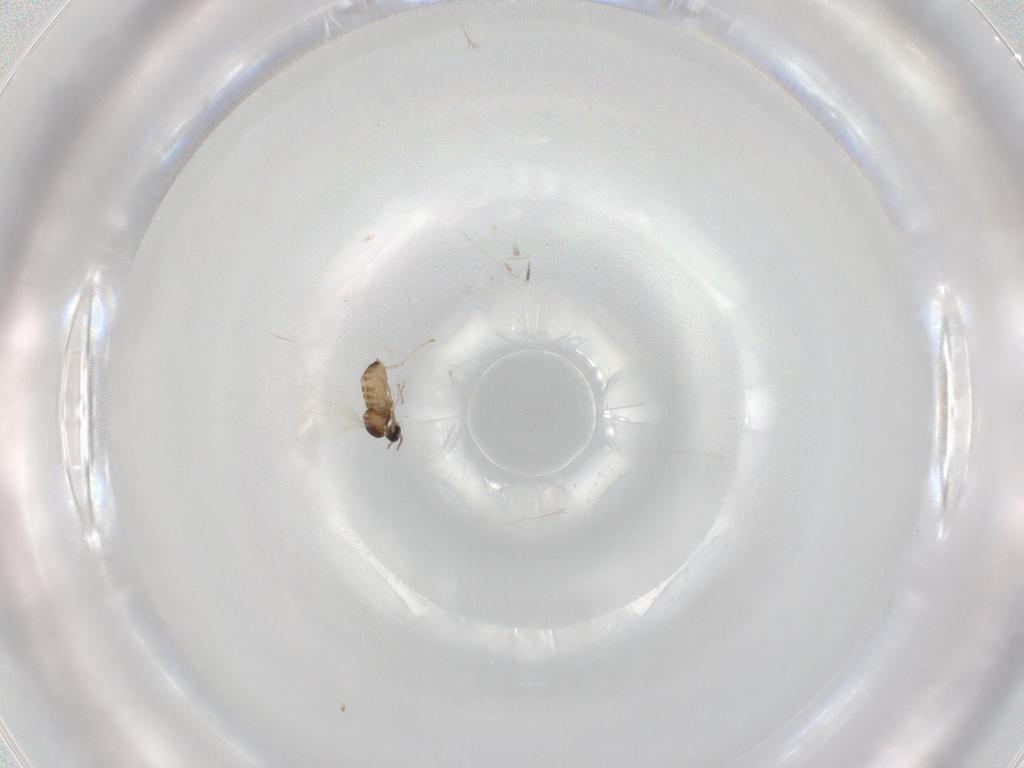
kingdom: Animalia
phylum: Arthropoda
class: Insecta
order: Diptera
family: Cecidomyiidae
